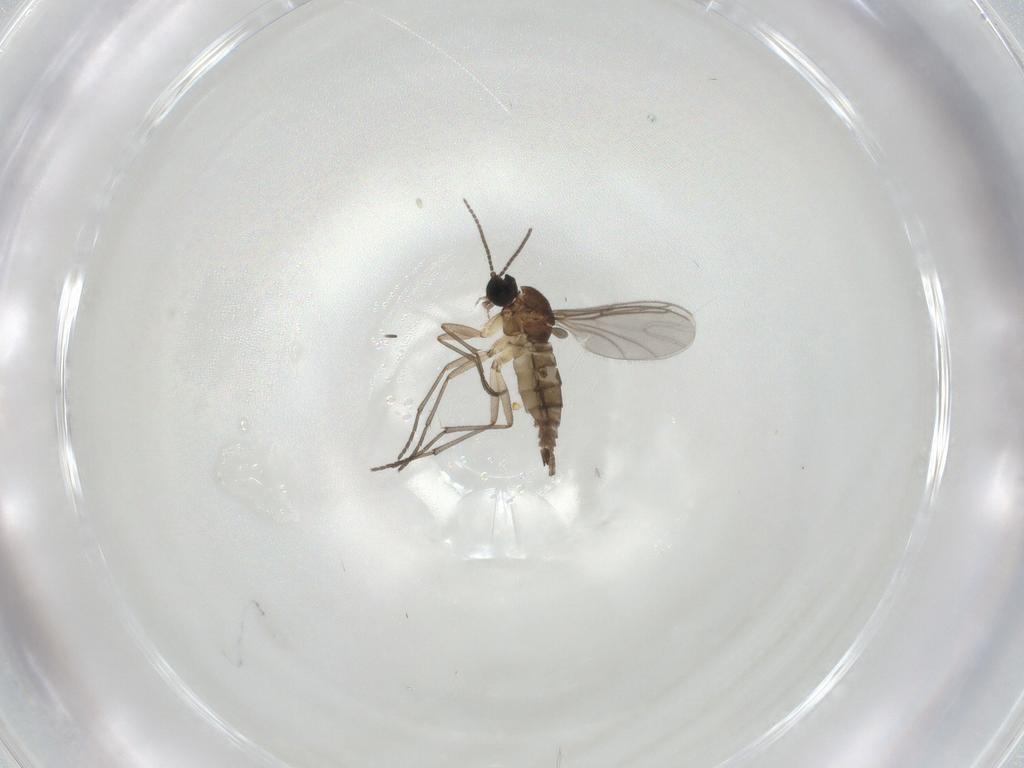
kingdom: Animalia
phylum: Arthropoda
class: Insecta
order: Diptera
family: Sciaridae
